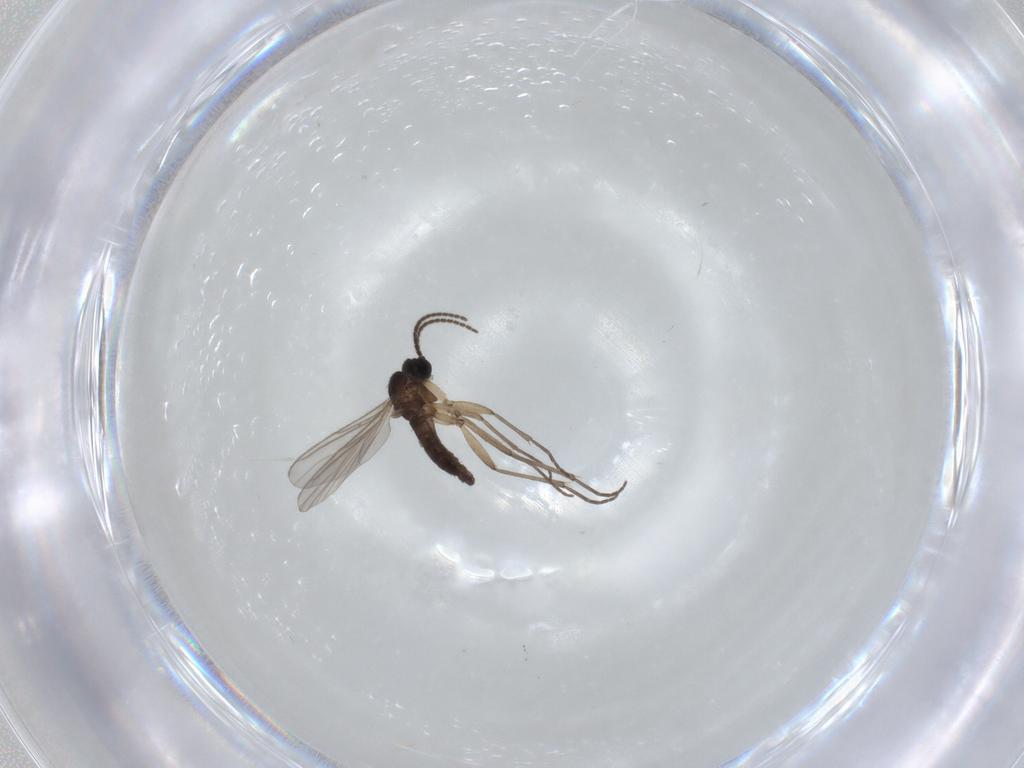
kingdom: Animalia
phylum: Arthropoda
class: Insecta
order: Diptera
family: Sciaridae
